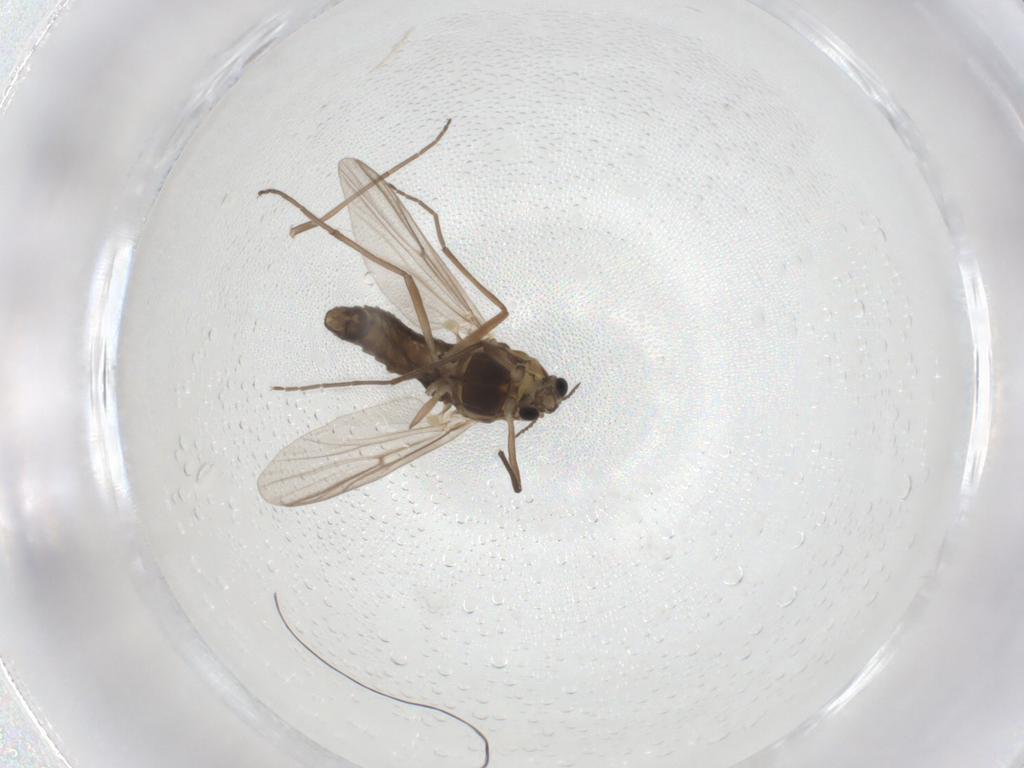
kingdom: Animalia
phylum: Arthropoda
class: Insecta
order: Diptera
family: Chironomidae
